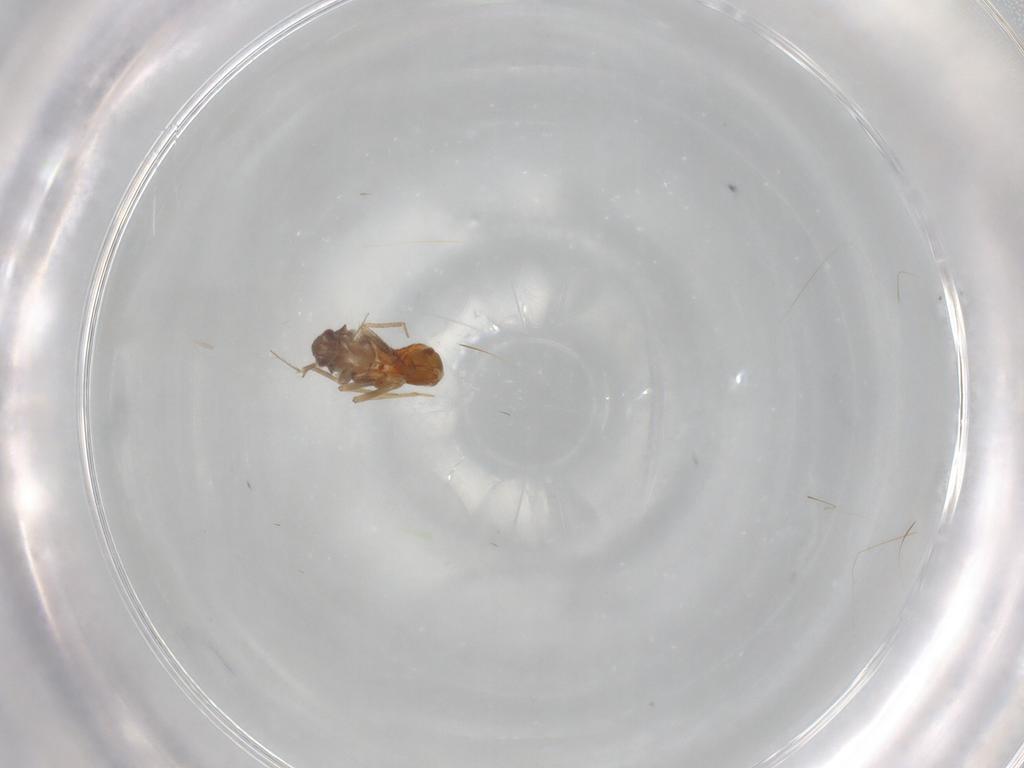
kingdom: Animalia
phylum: Arthropoda
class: Insecta
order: Hemiptera
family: Ceratocombidae
